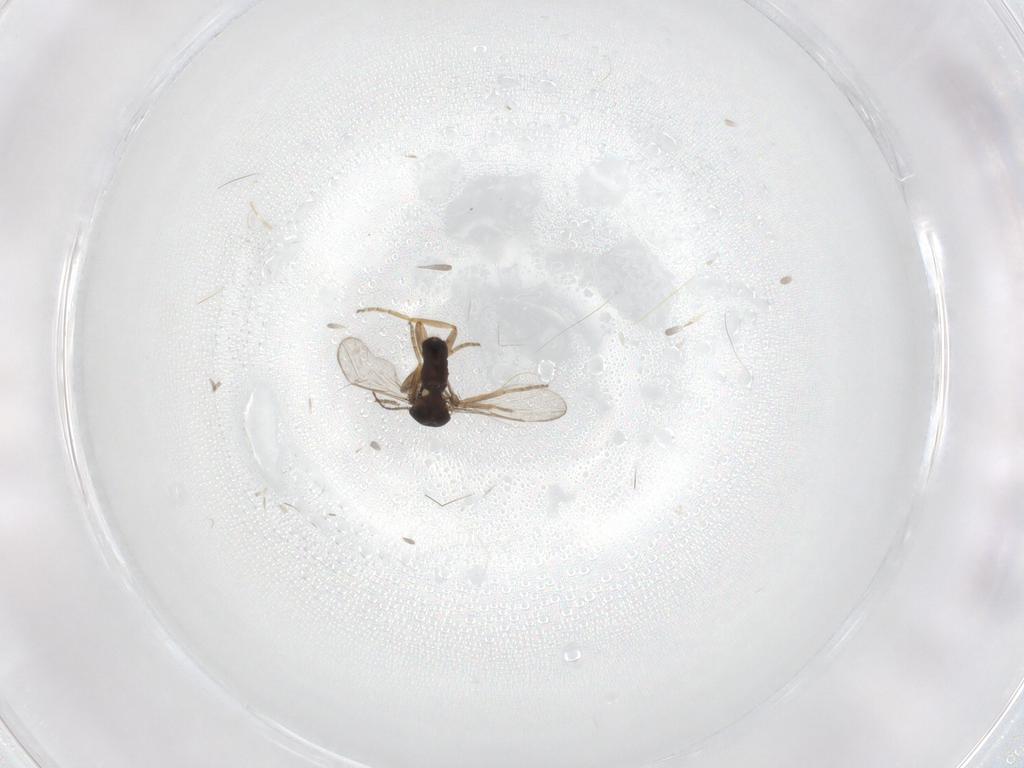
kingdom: Animalia
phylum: Arthropoda
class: Insecta
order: Diptera
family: Ceratopogonidae
